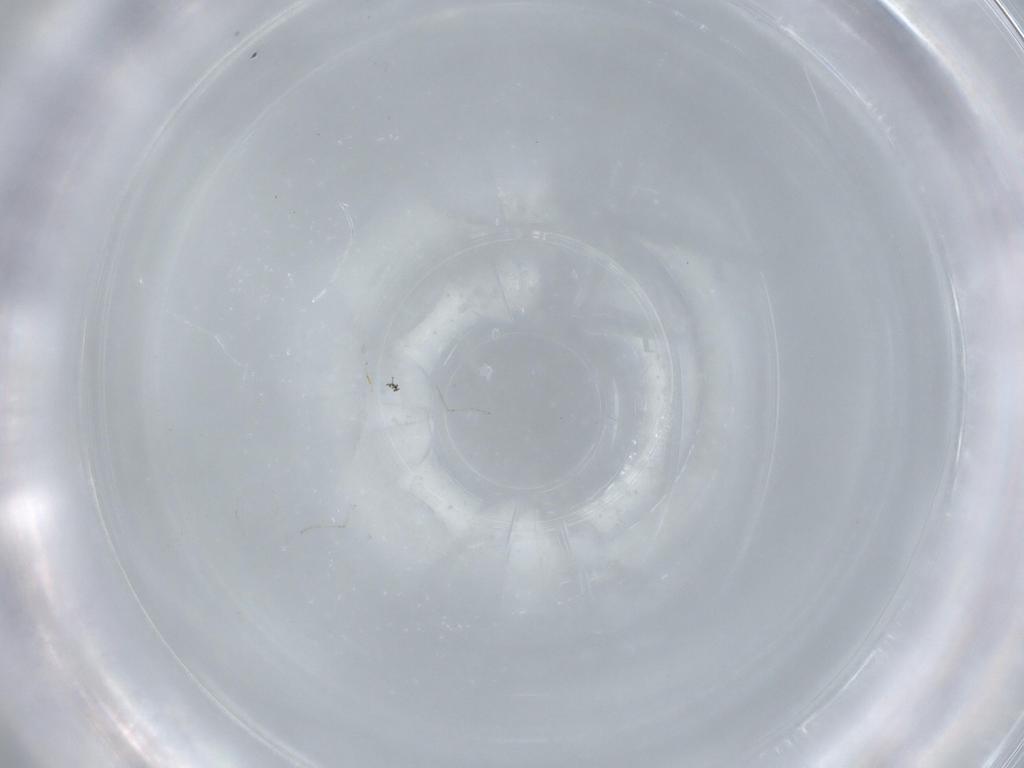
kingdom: Animalia
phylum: Arthropoda
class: Insecta
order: Diptera
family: Cecidomyiidae
